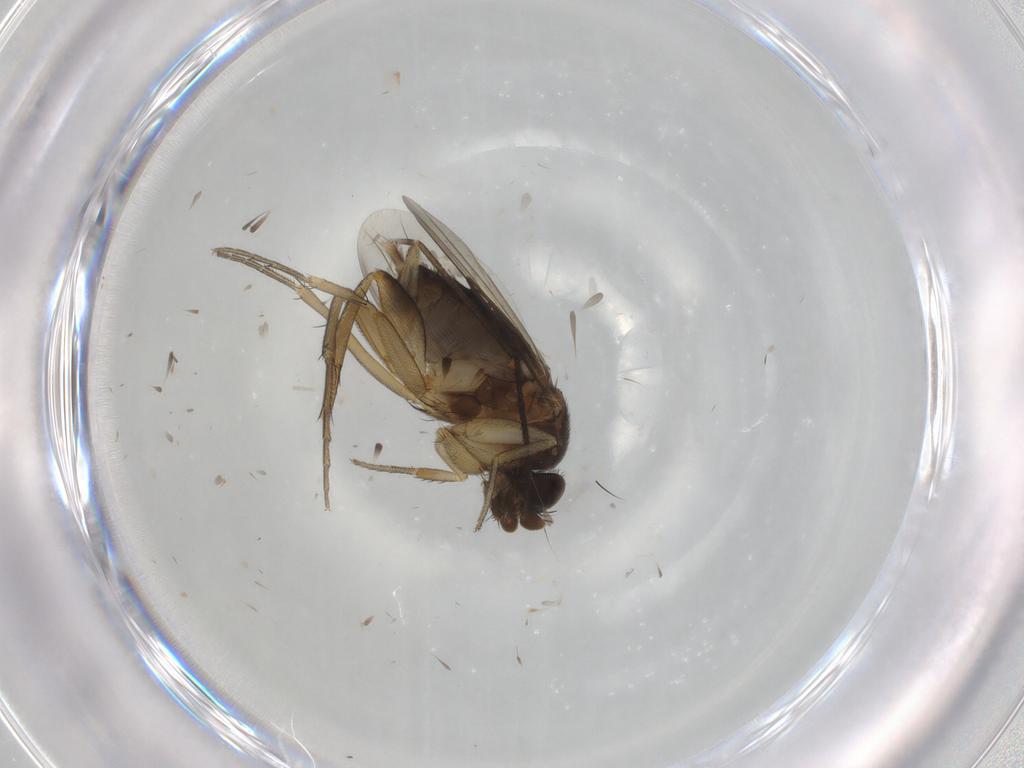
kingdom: Animalia
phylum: Arthropoda
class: Insecta
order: Diptera
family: Phoridae
